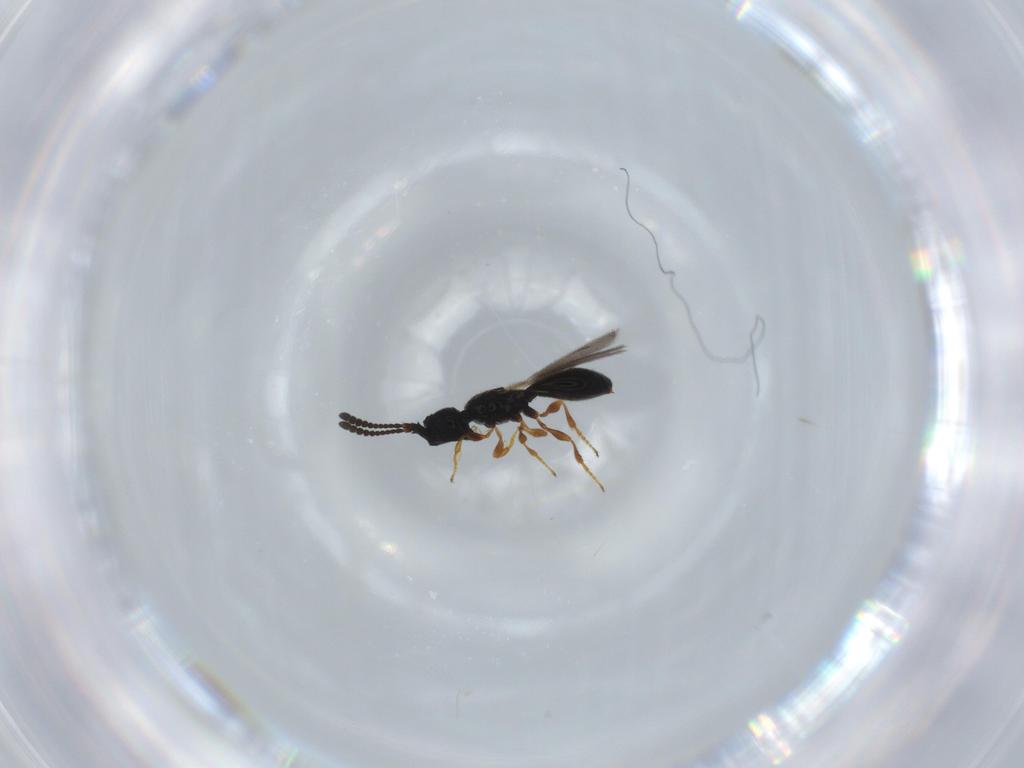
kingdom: Animalia
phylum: Arthropoda
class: Insecta
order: Hymenoptera
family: Diapriidae
